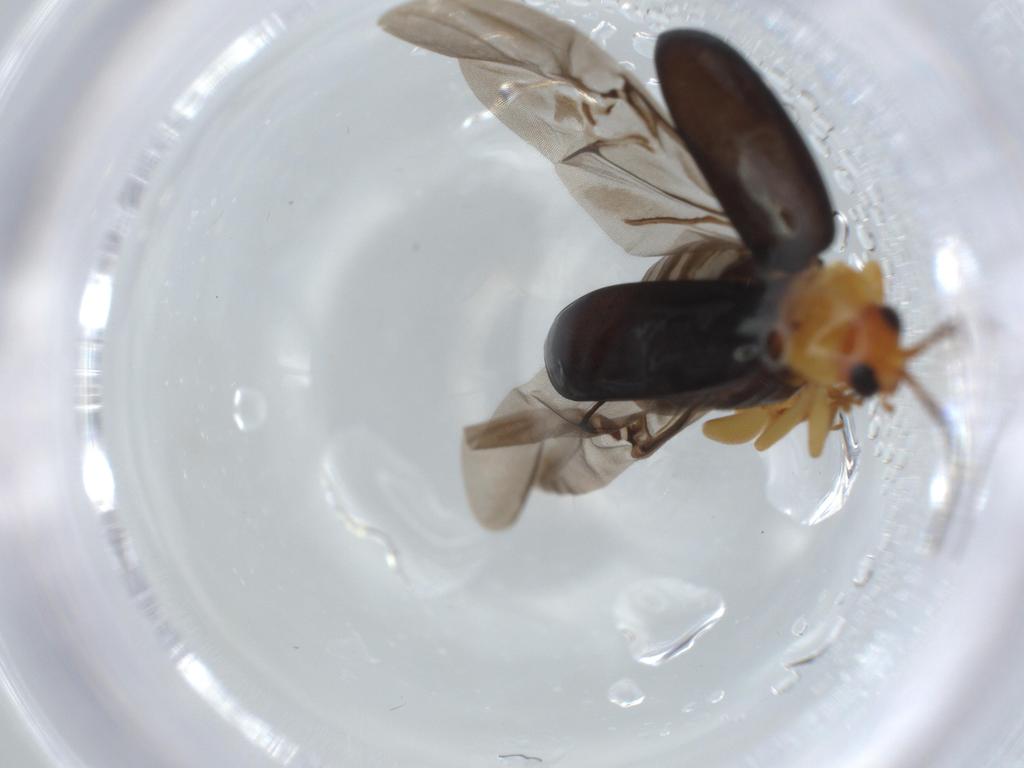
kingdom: Animalia
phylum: Arthropoda
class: Insecta
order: Coleoptera
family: Chrysomelidae
